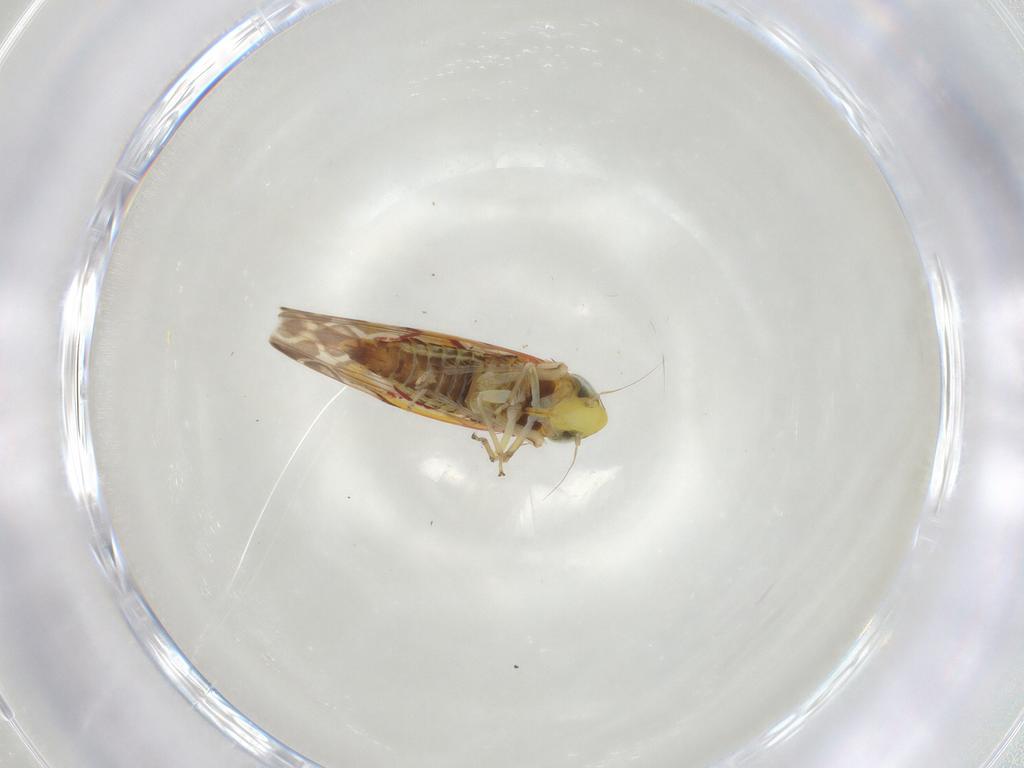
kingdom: Animalia
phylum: Arthropoda
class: Insecta
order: Hemiptera
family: Cicadellidae
